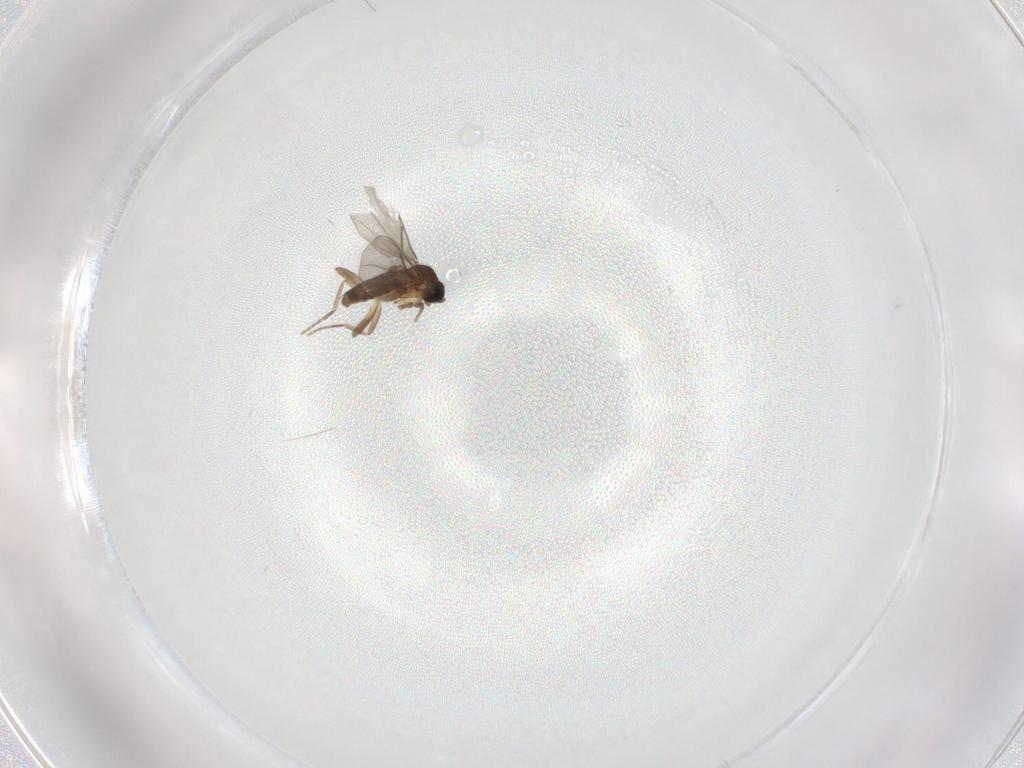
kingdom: Animalia
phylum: Arthropoda
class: Insecta
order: Diptera
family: Phoridae
